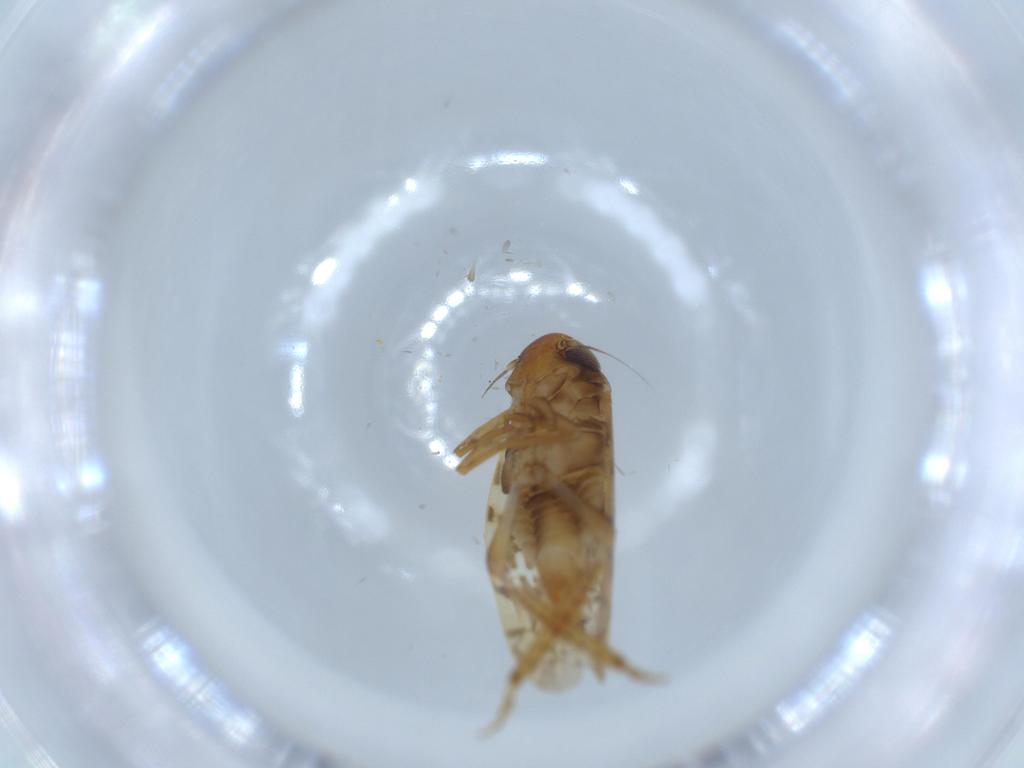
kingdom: Animalia
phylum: Arthropoda
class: Insecta
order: Hemiptera
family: Cicadellidae
